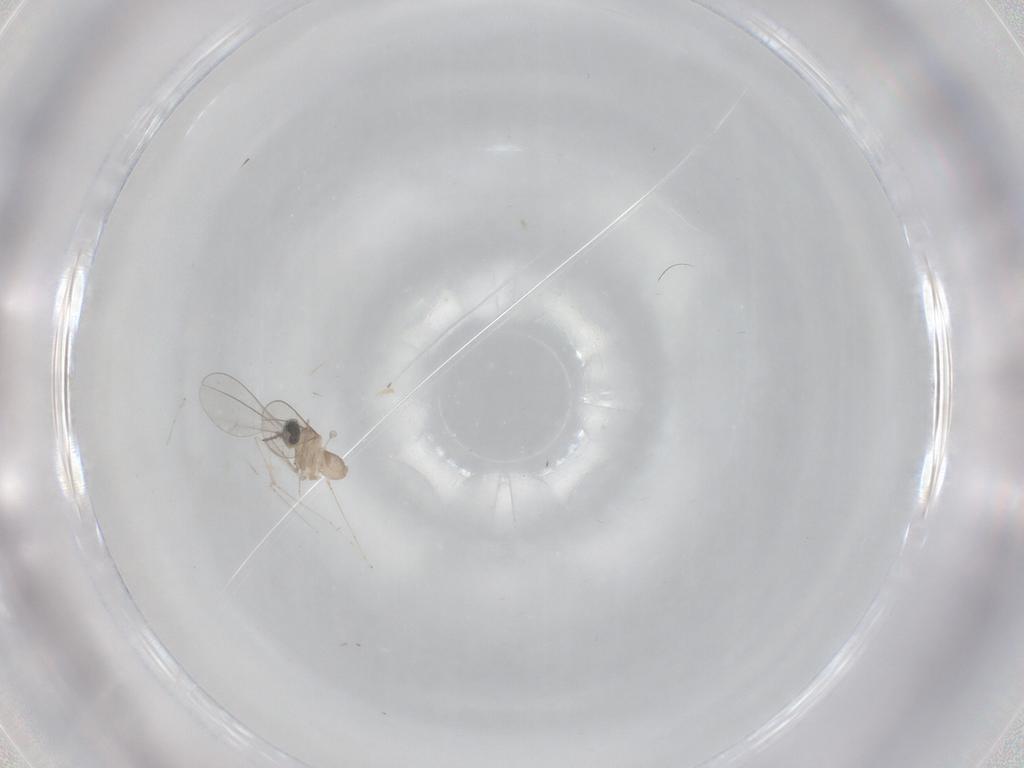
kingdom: Animalia
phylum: Arthropoda
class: Insecta
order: Diptera
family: Cecidomyiidae
